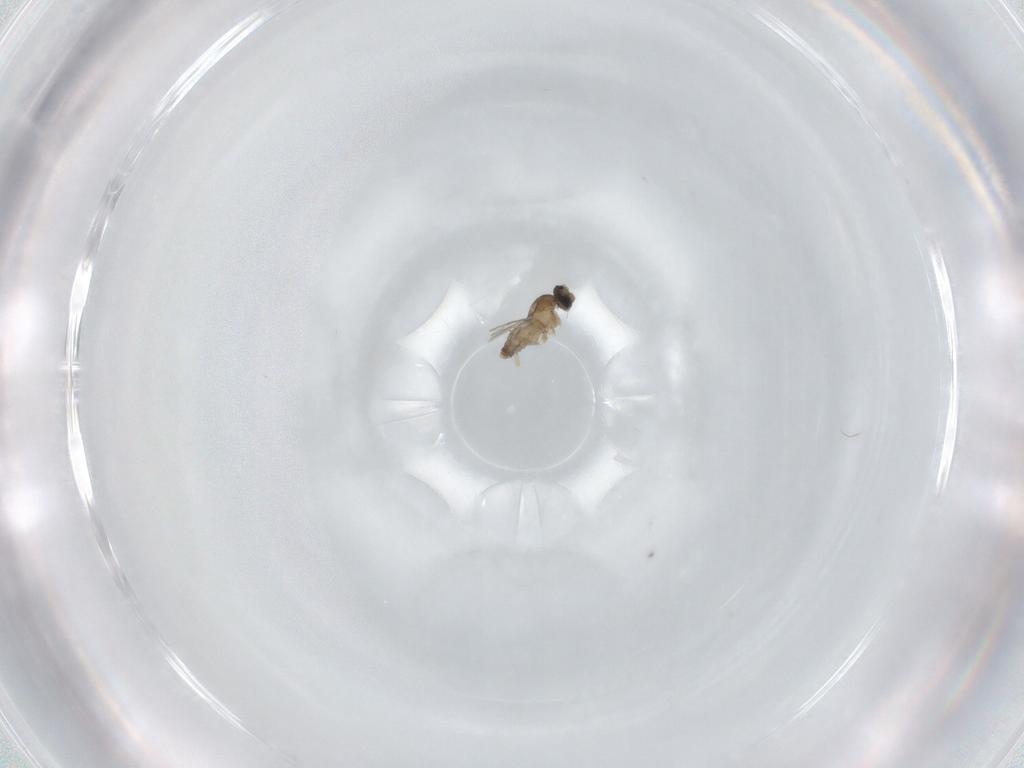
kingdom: Animalia
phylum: Arthropoda
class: Insecta
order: Diptera
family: Cecidomyiidae
